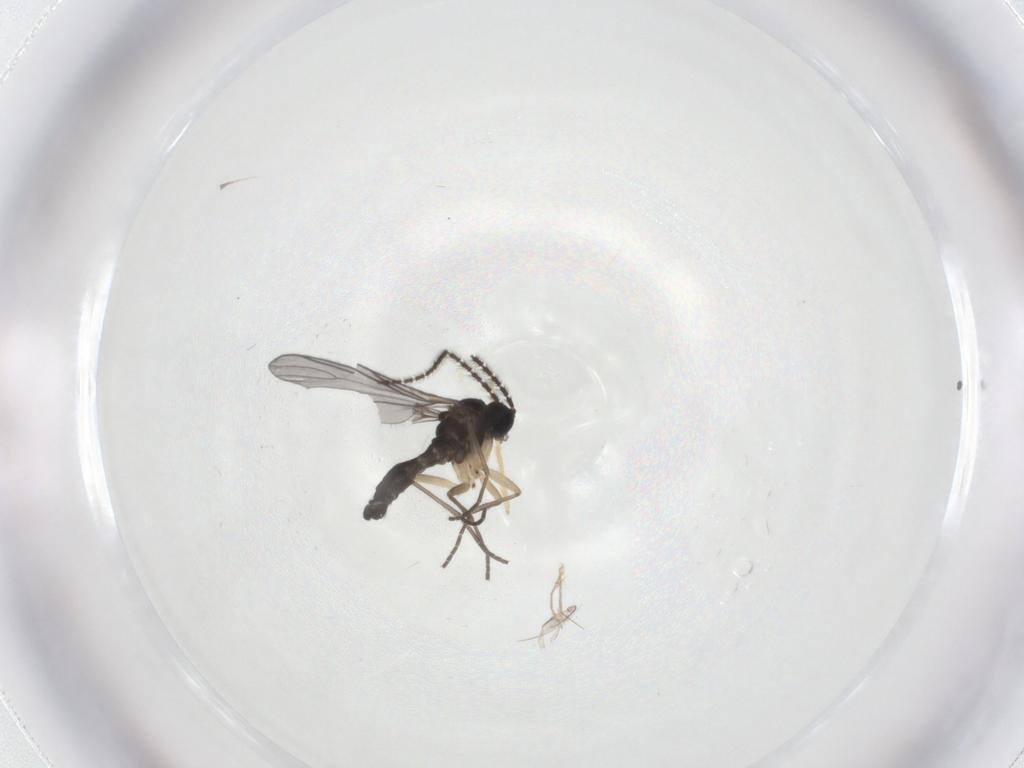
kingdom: Animalia
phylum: Arthropoda
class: Insecta
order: Diptera
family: Sciaridae
